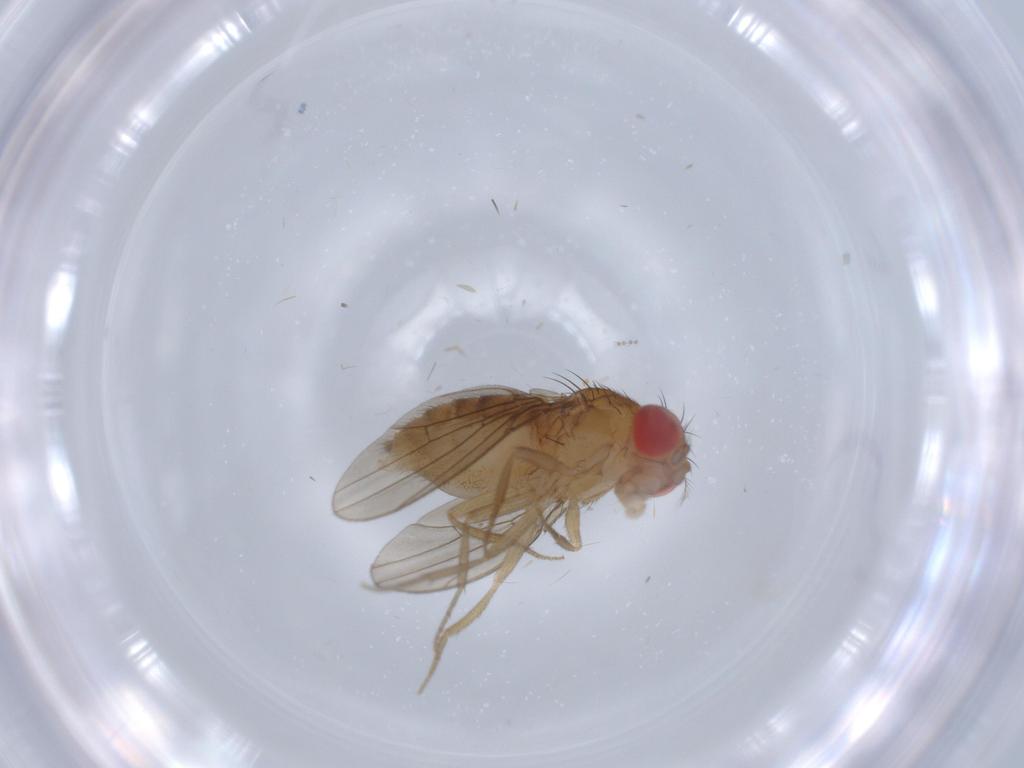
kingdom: Animalia
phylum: Arthropoda
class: Insecta
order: Diptera
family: Drosophilidae
